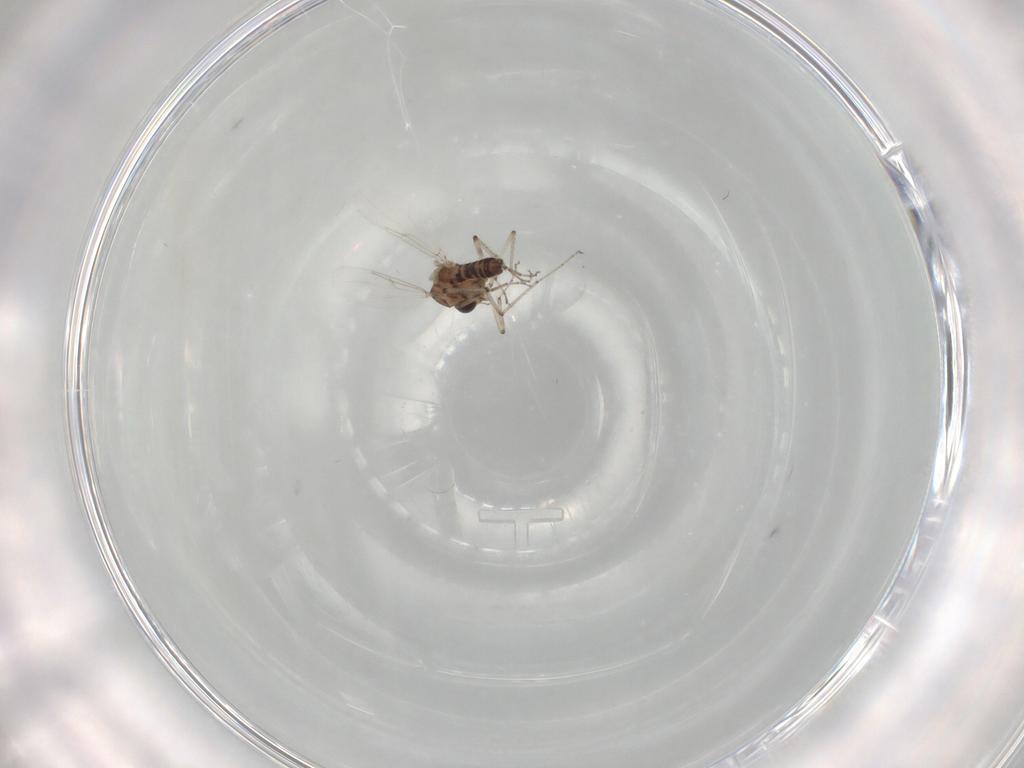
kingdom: Animalia
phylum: Arthropoda
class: Insecta
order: Diptera
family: Ceratopogonidae
